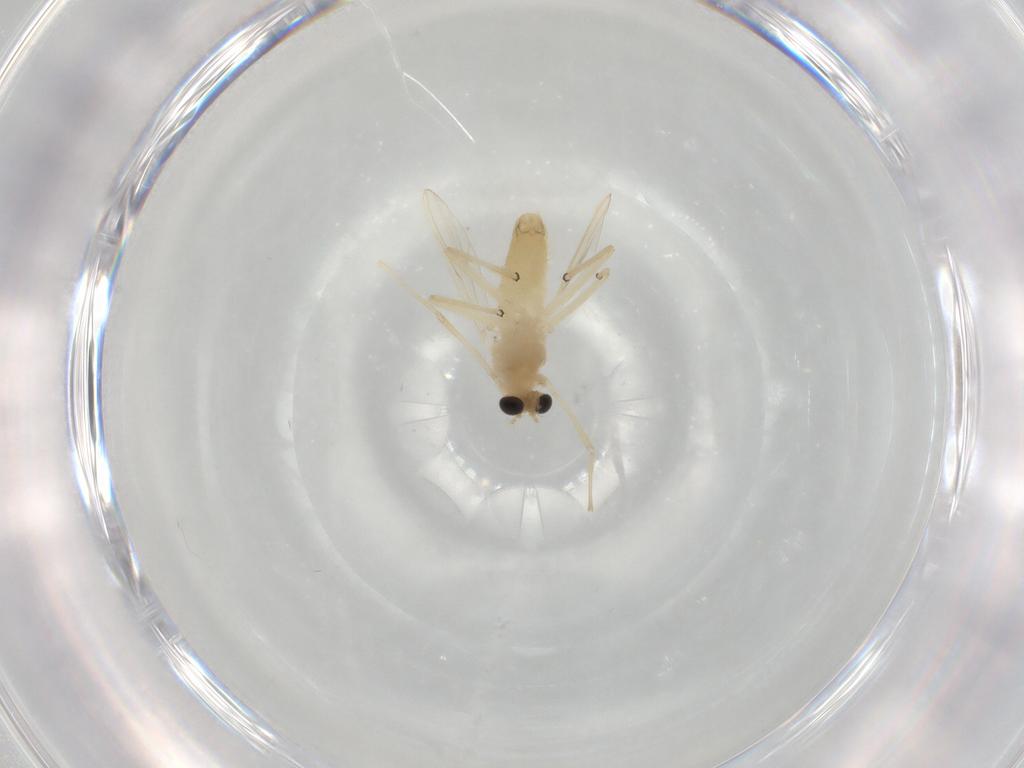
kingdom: Animalia
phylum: Arthropoda
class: Insecta
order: Diptera
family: Chironomidae
